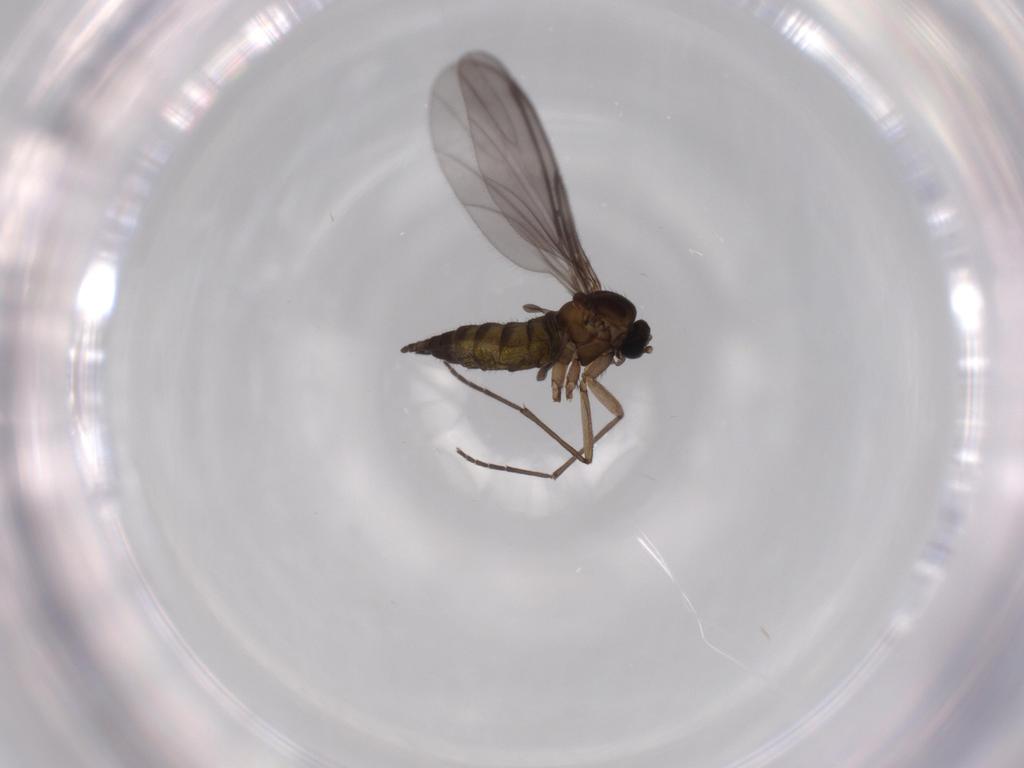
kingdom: Animalia
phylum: Arthropoda
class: Insecta
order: Diptera
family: Sciaridae
